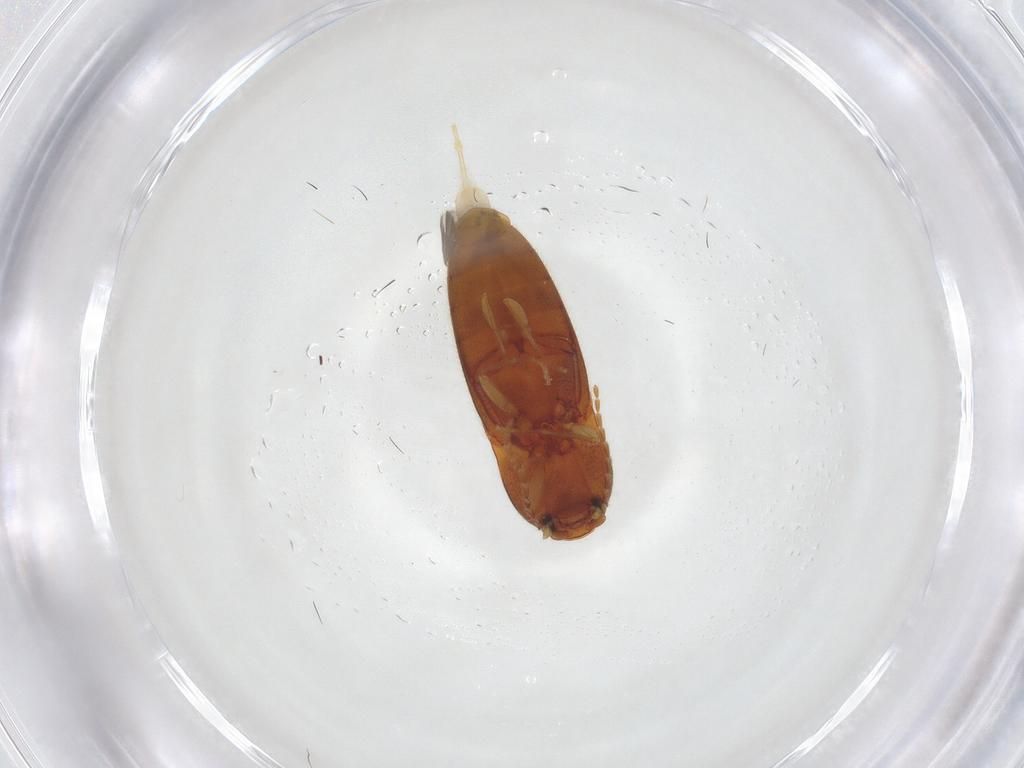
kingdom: Animalia
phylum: Arthropoda
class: Insecta
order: Coleoptera
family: Elateridae
